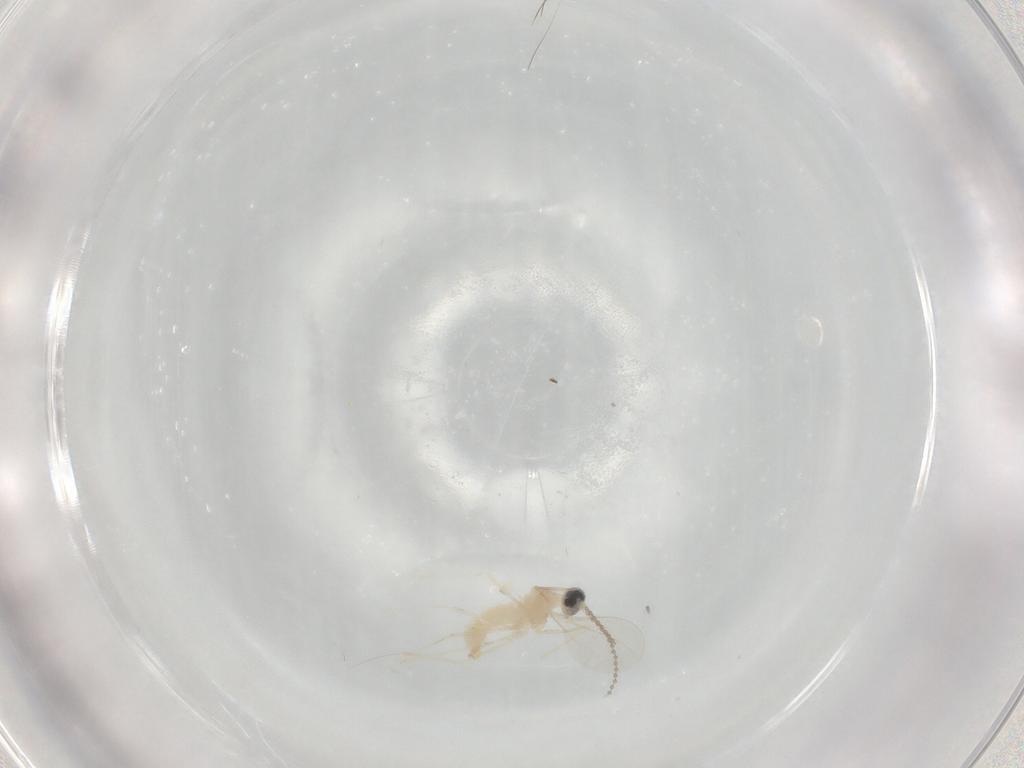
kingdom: Animalia
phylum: Arthropoda
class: Insecta
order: Diptera
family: Cecidomyiidae
